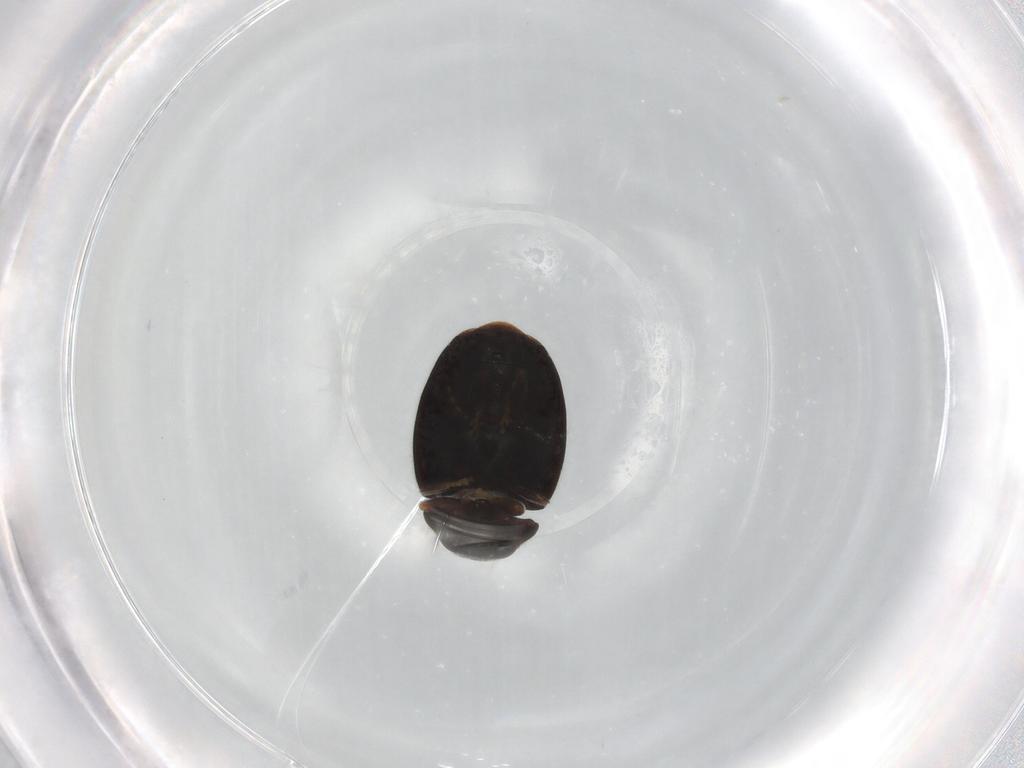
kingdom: Animalia
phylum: Arthropoda
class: Insecta
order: Coleoptera
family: Coccinellidae
